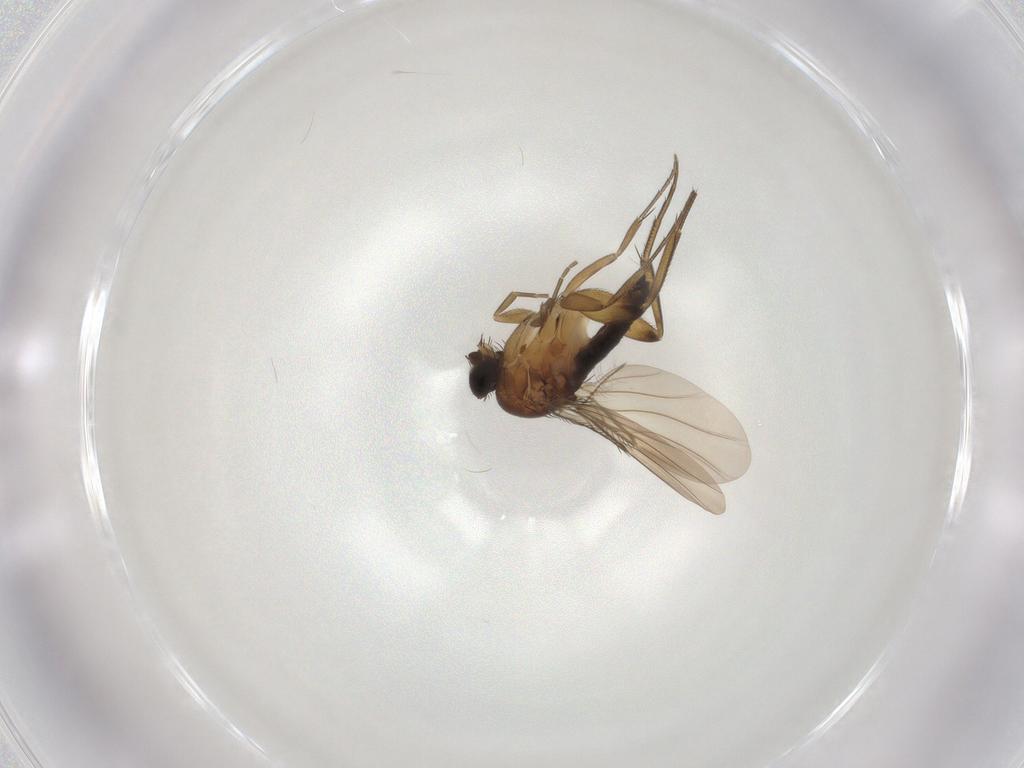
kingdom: Animalia
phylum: Arthropoda
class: Insecta
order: Diptera
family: Phoridae
